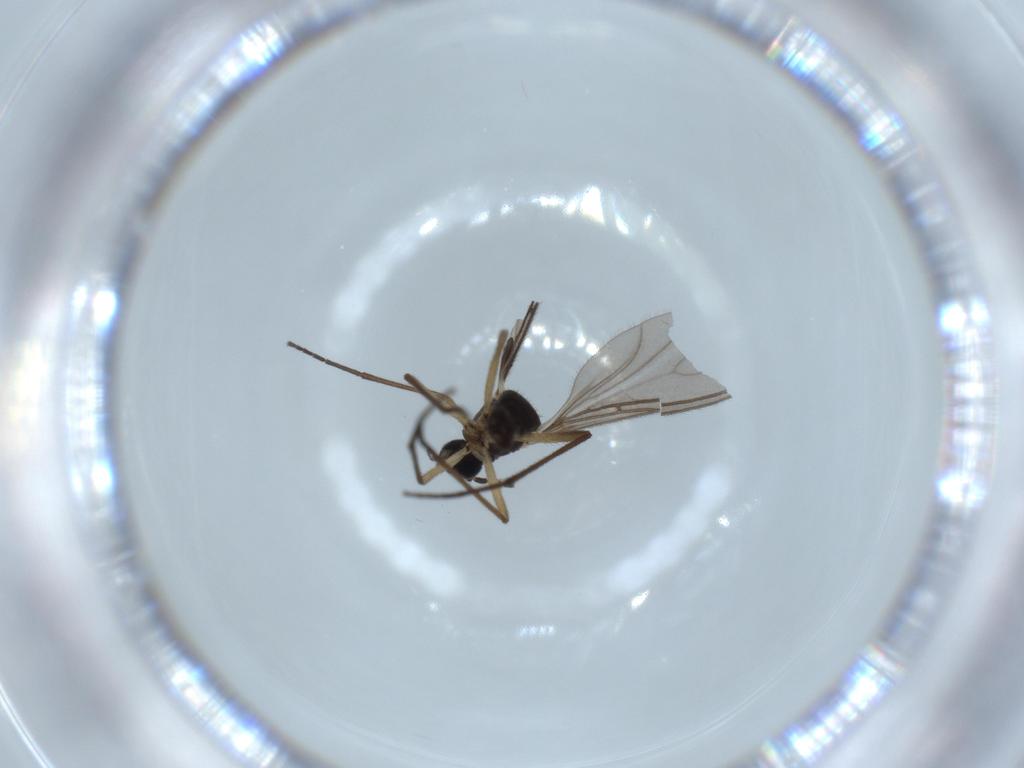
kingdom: Animalia
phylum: Arthropoda
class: Insecta
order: Diptera
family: Sciaridae
